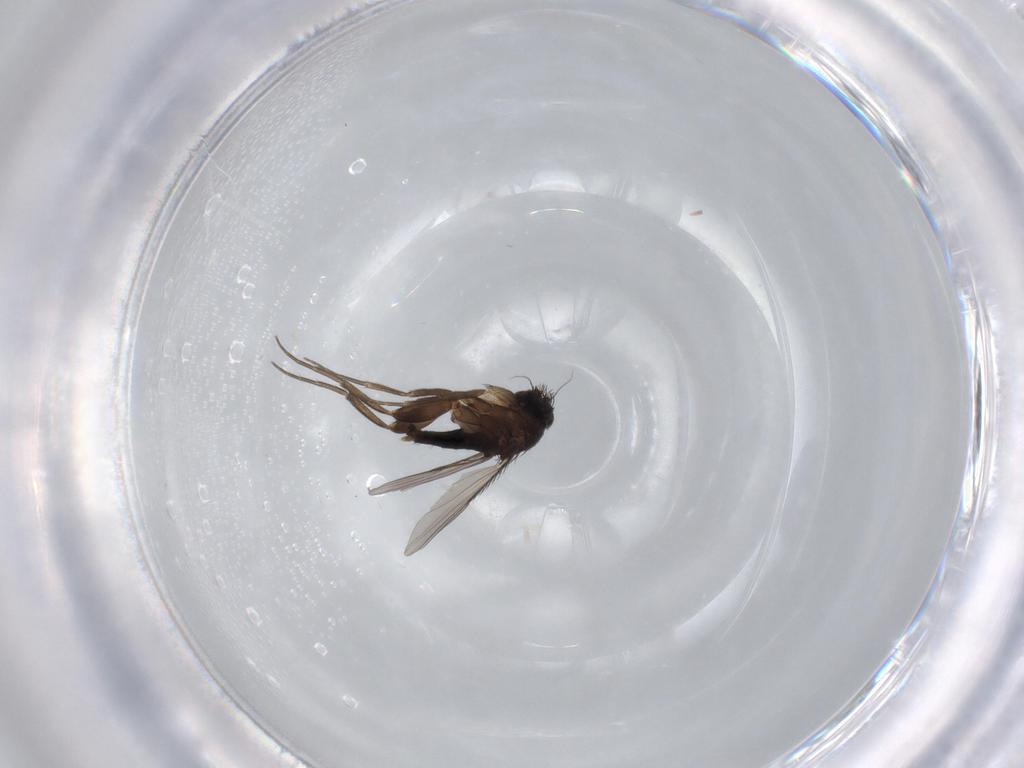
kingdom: Animalia
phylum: Arthropoda
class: Insecta
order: Diptera
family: Phoridae
